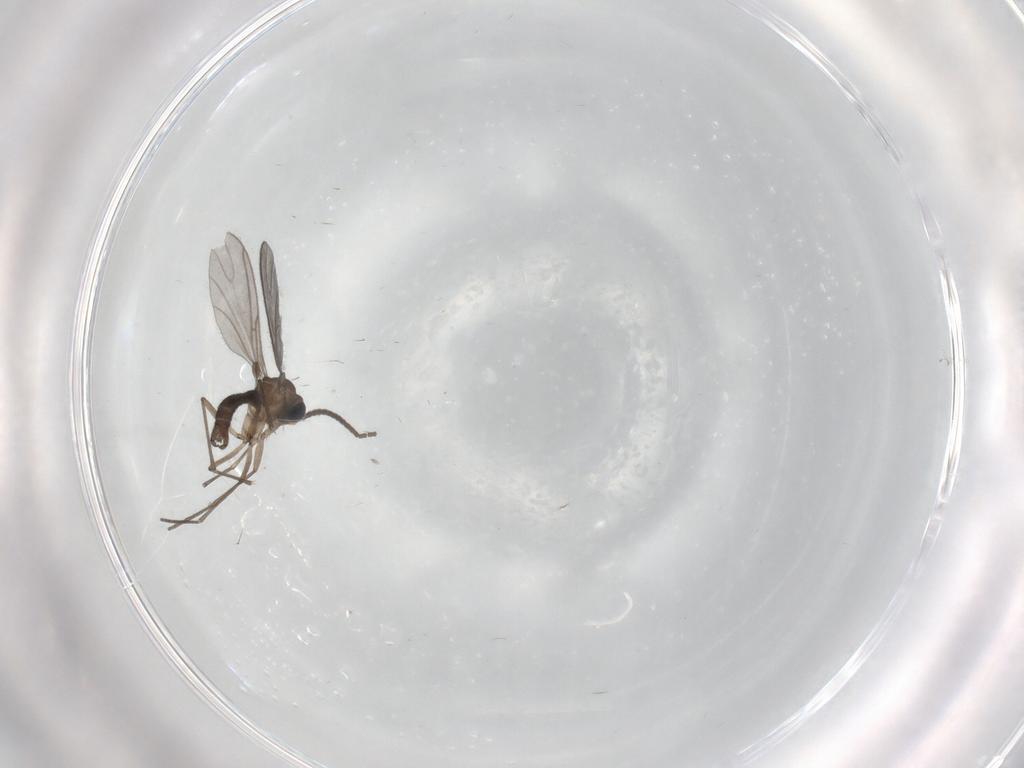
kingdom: Animalia
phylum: Arthropoda
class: Insecta
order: Diptera
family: Sciaridae
